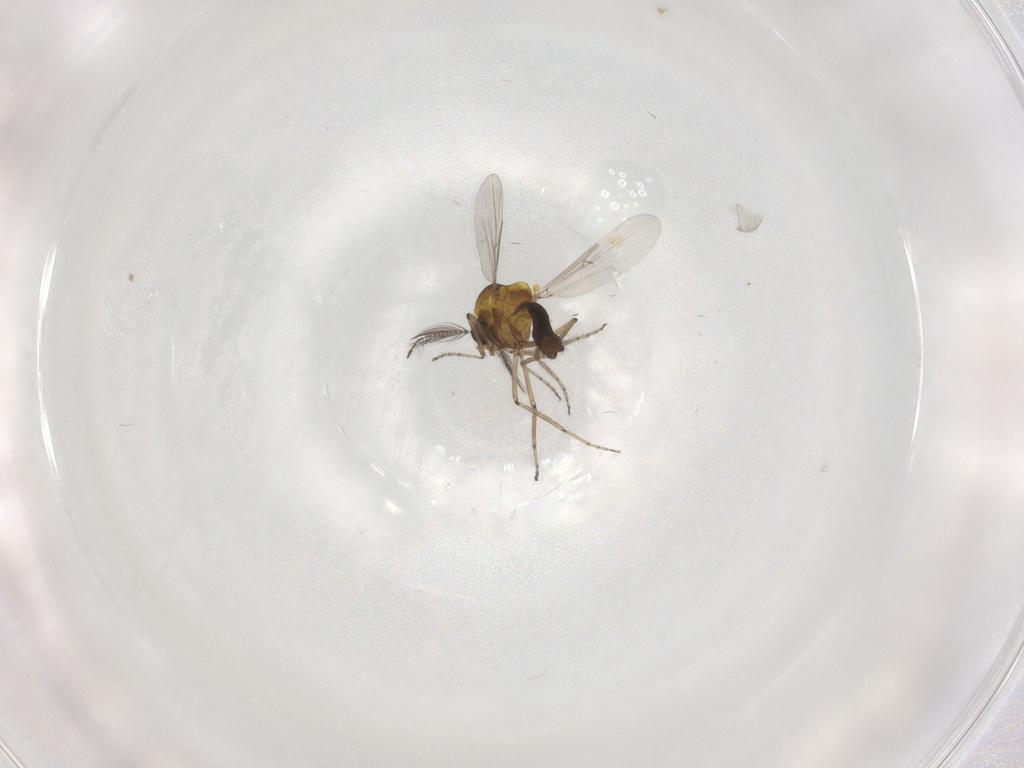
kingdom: Animalia
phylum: Arthropoda
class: Insecta
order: Diptera
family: Ceratopogonidae
